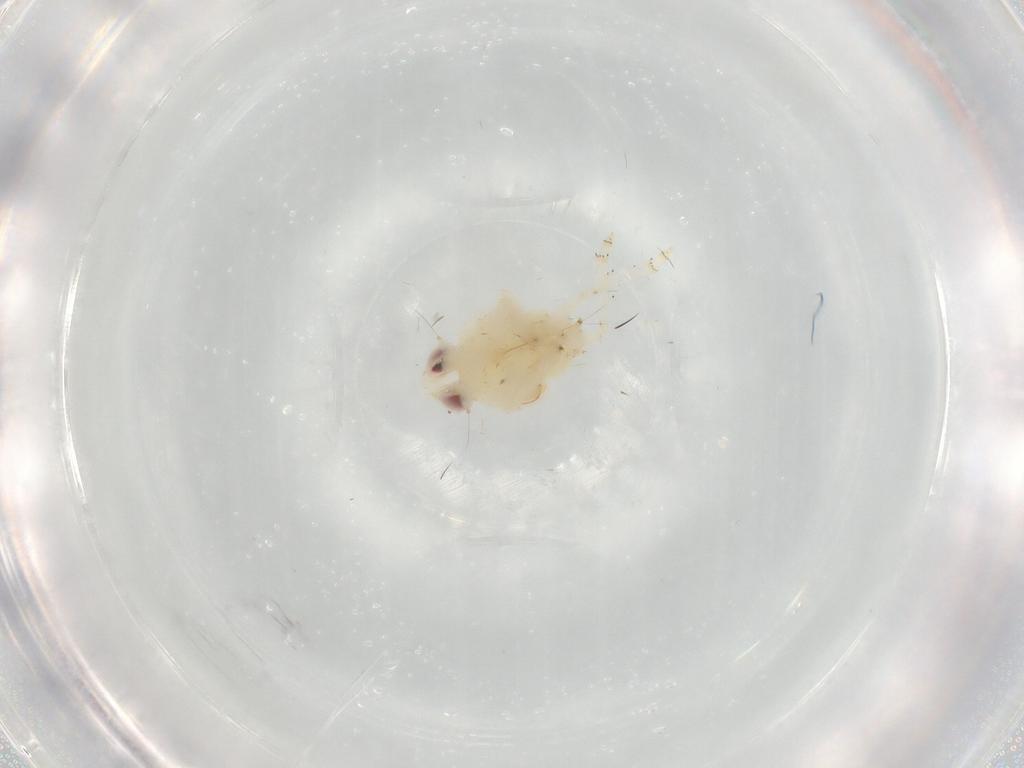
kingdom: Animalia
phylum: Arthropoda
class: Insecta
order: Hemiptera
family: Nogodinidae
